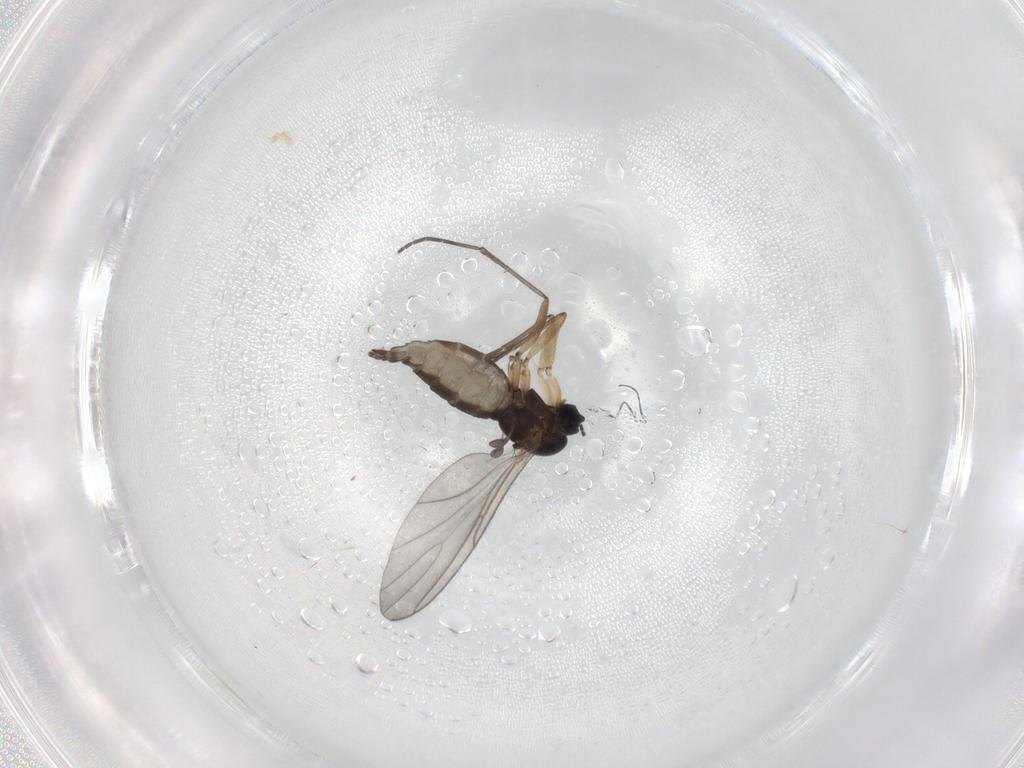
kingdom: Animalia
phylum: Arthropoda
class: Insecta
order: Diptera
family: Sciaridae
